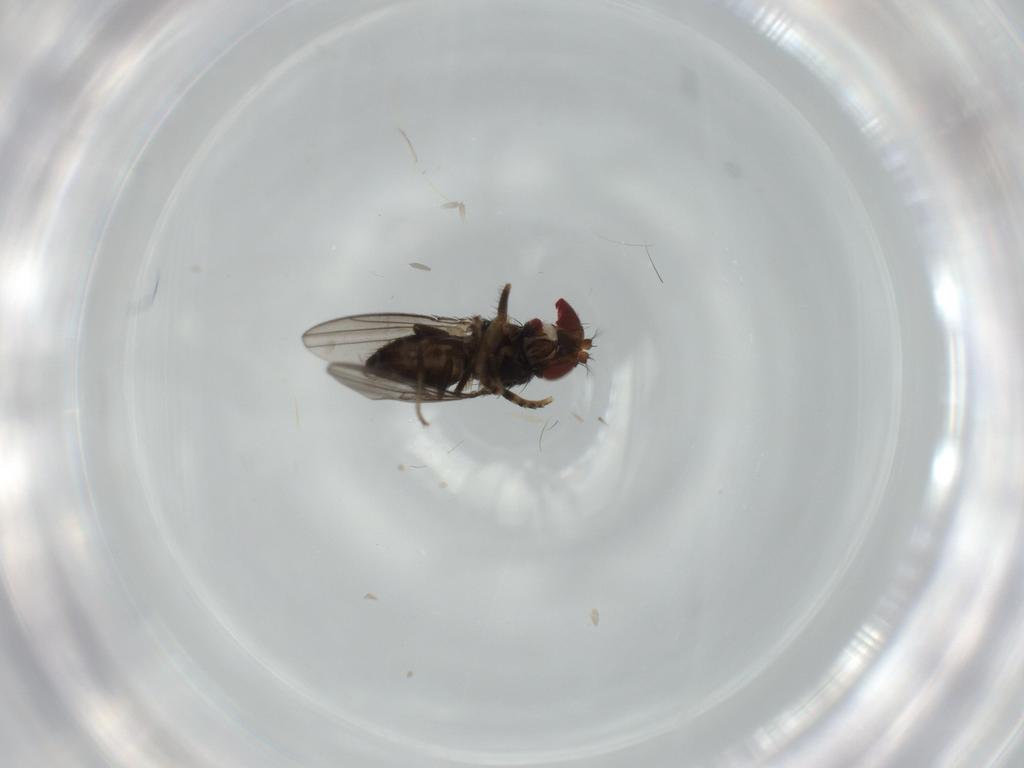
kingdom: Animalia
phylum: Arthropoda
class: Insecta
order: Diptera
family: Ephydridae
